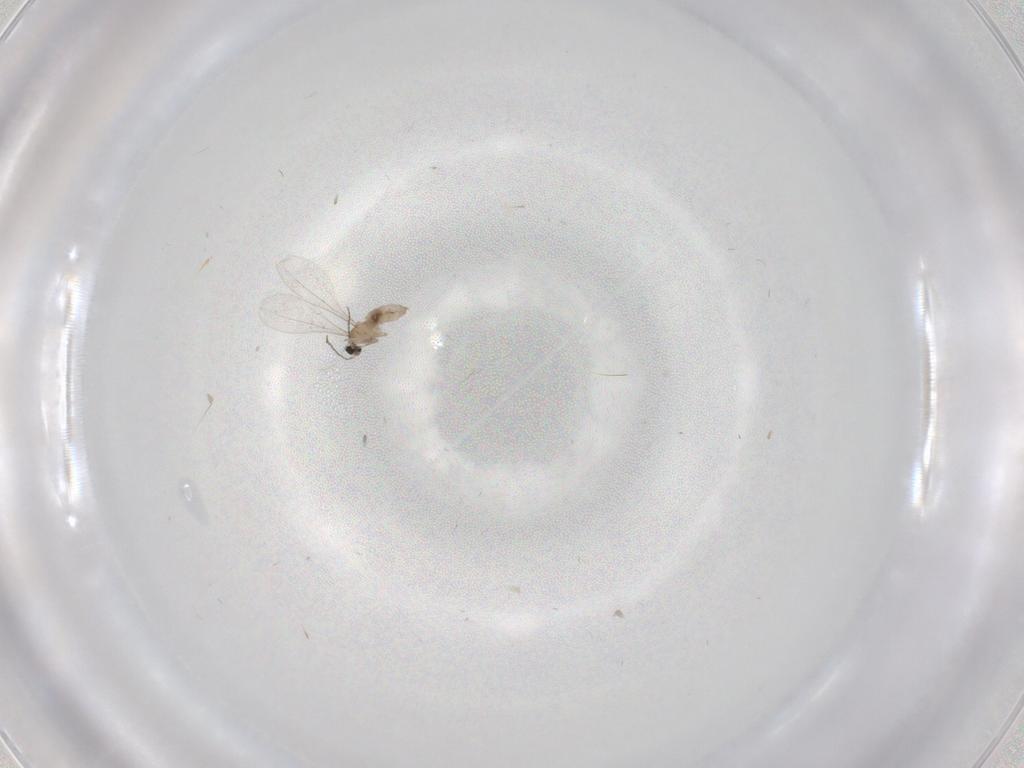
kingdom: Animalia
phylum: Arthropoda
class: Insecta
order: Diptera
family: Cecidomyiidae
